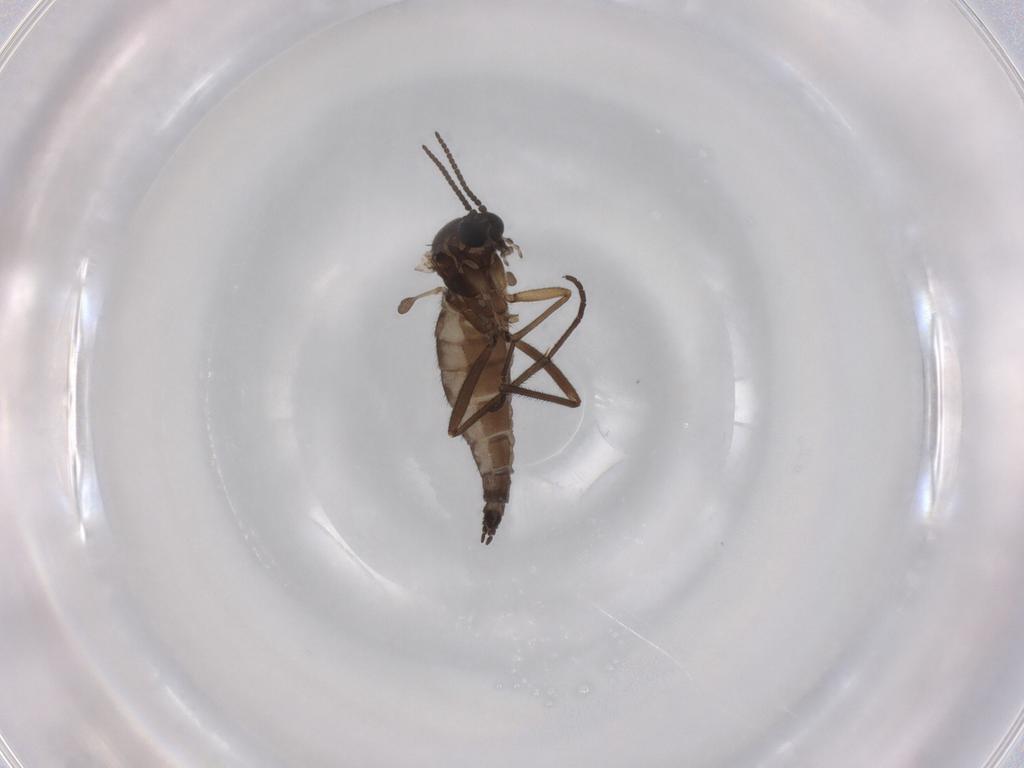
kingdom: Animalia
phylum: Arthropoda
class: Insecta
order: Diptera
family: Sciaridae
